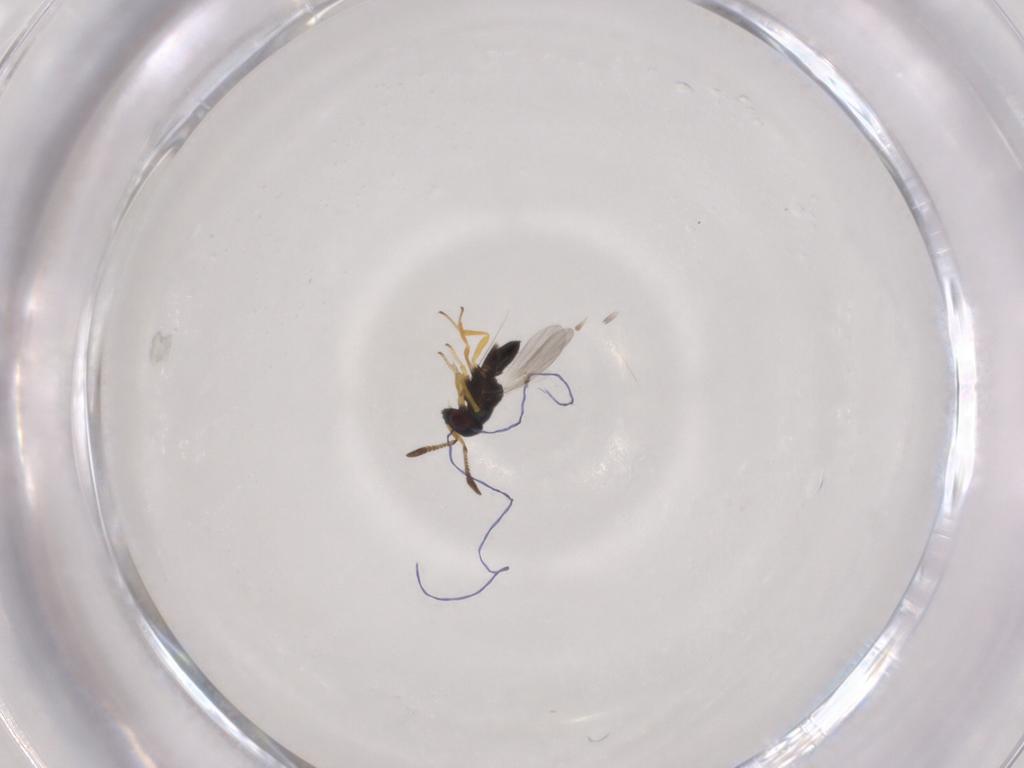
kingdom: Animalia
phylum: Arthropoda
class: Insecta
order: Hymenoptera
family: Encyrtidae
